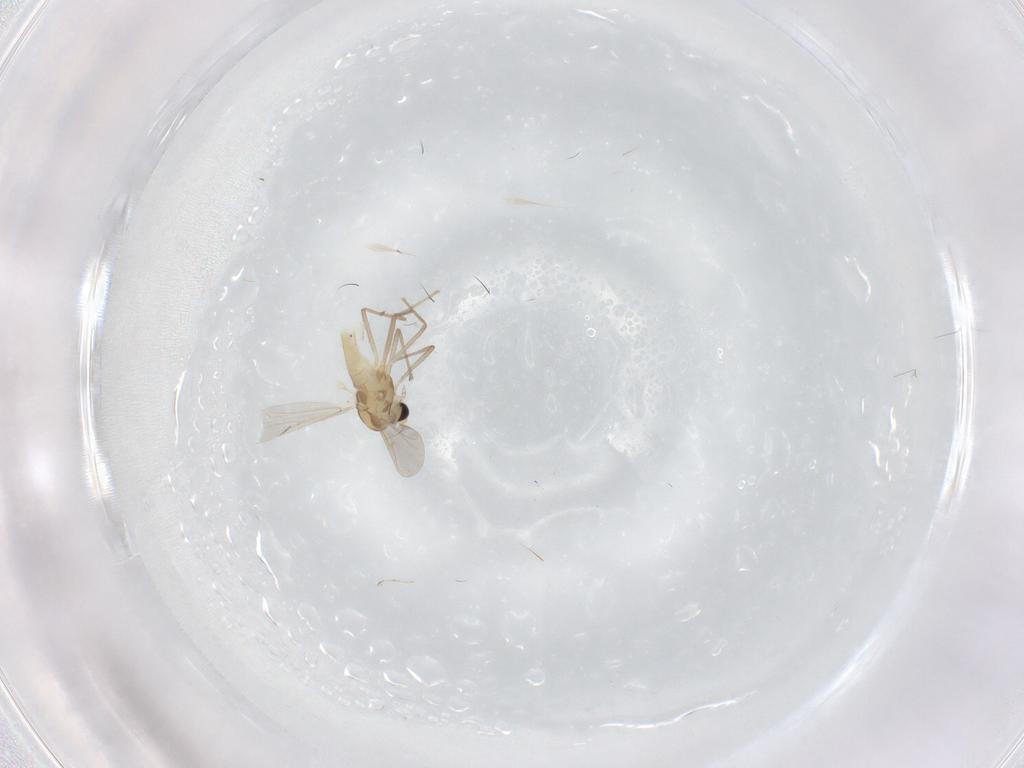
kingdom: Animalia
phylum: Arthropoda
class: Insecta
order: Diptera
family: Chironomidae
